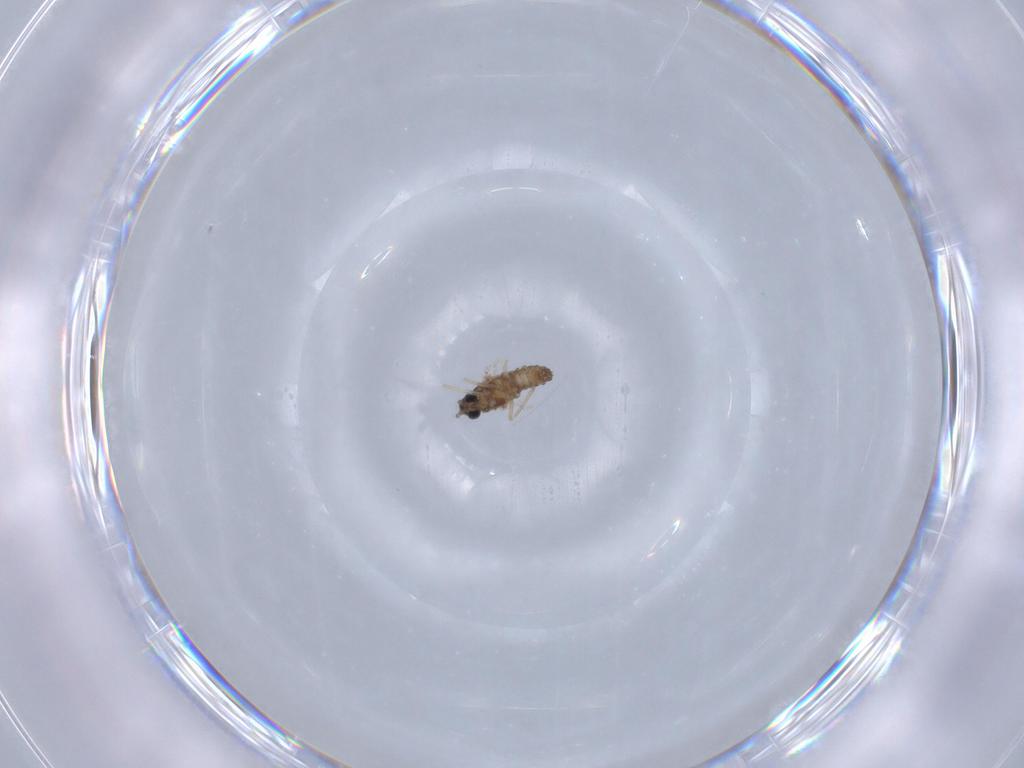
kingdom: Animalia
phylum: Arthropoda
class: Insecta
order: Diptera
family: Cecidomyiidae
